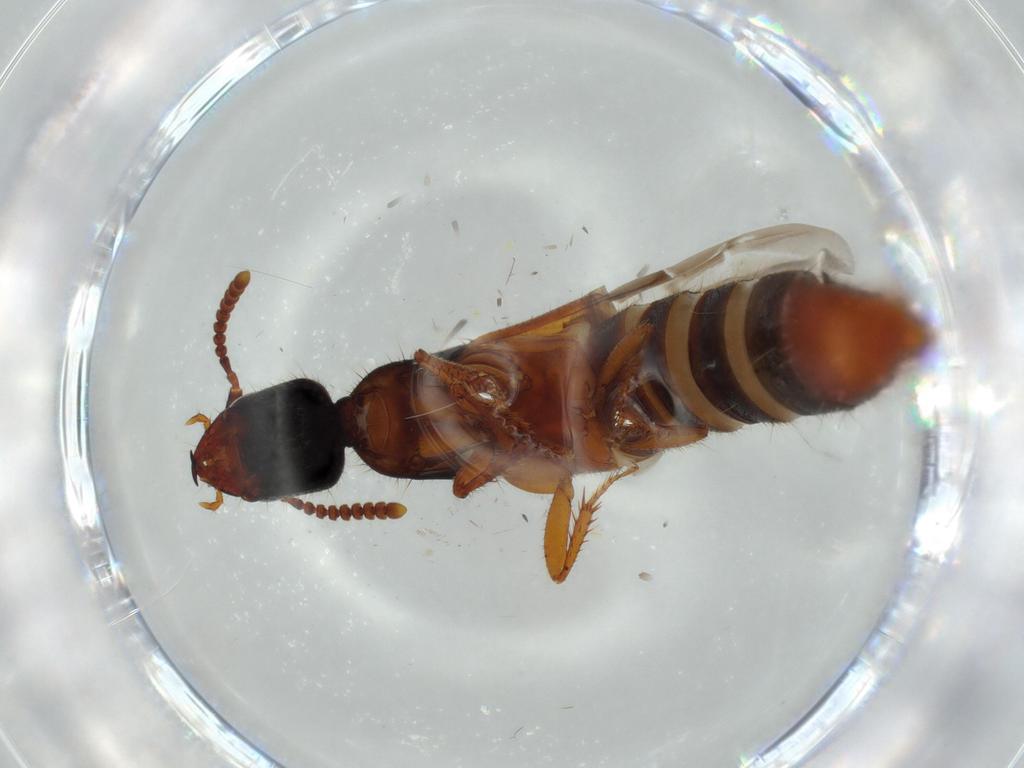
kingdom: Animalia
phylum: Arthropoda
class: Insecta
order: Coleoptera
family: Staphylinidae
